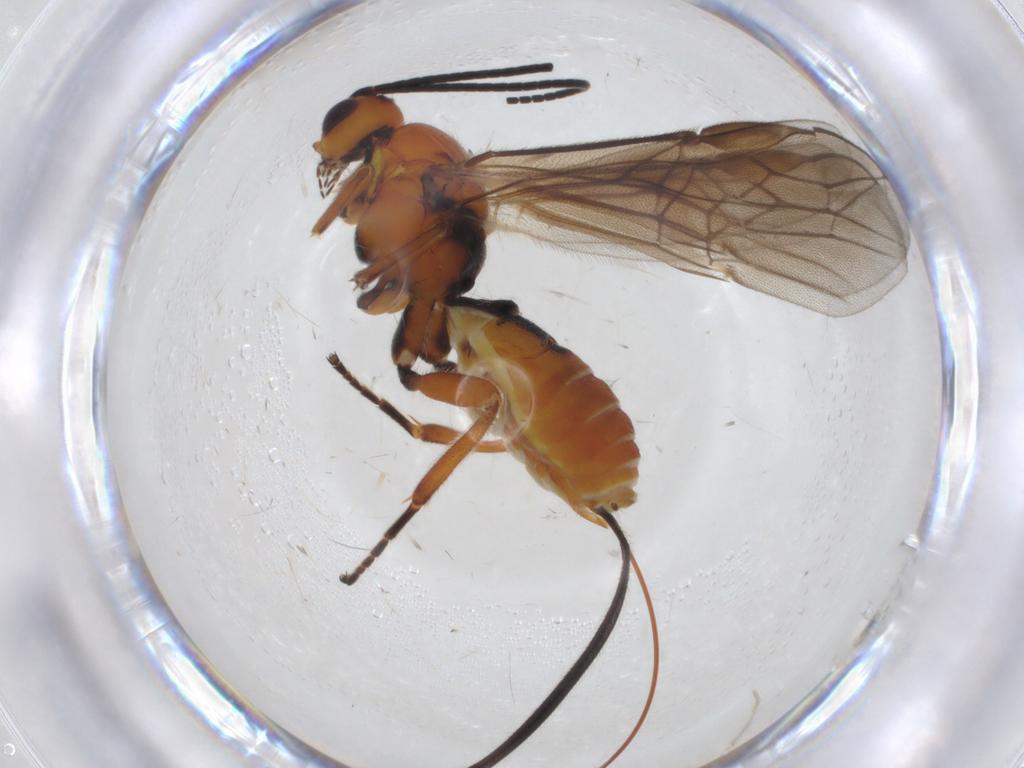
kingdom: Animalia
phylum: Arthropoda
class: Insecta
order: Hymenoptera
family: Braconidae
